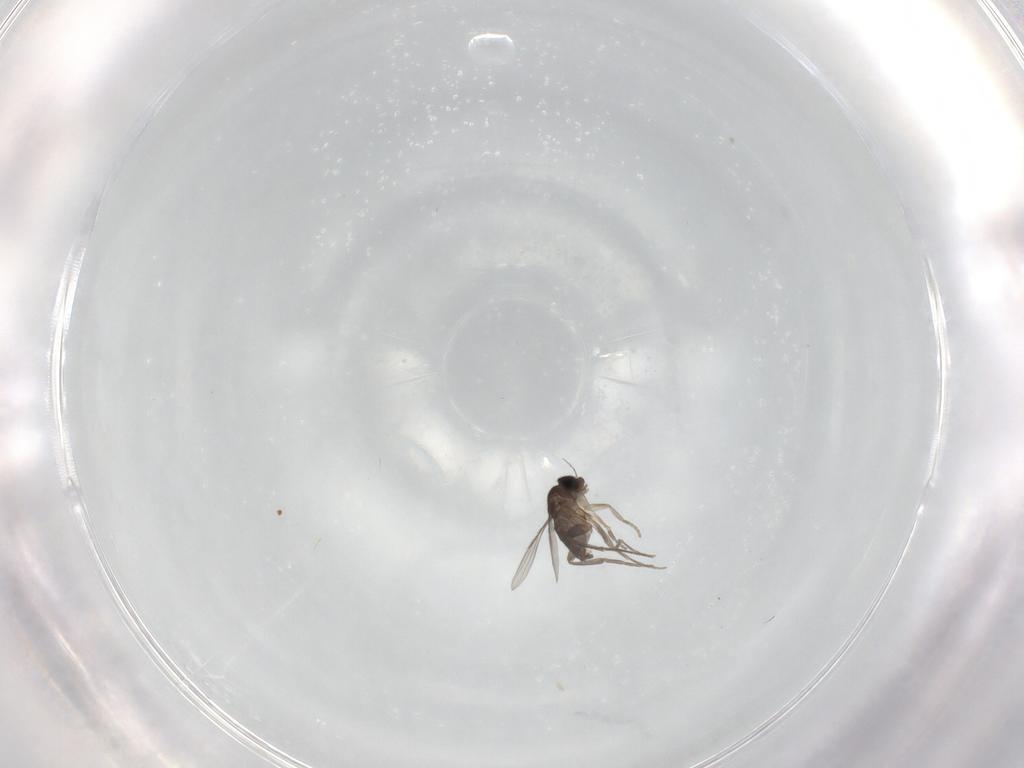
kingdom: Animalia
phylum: Arthropoda
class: Insecta
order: Diptera
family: Phoridae
